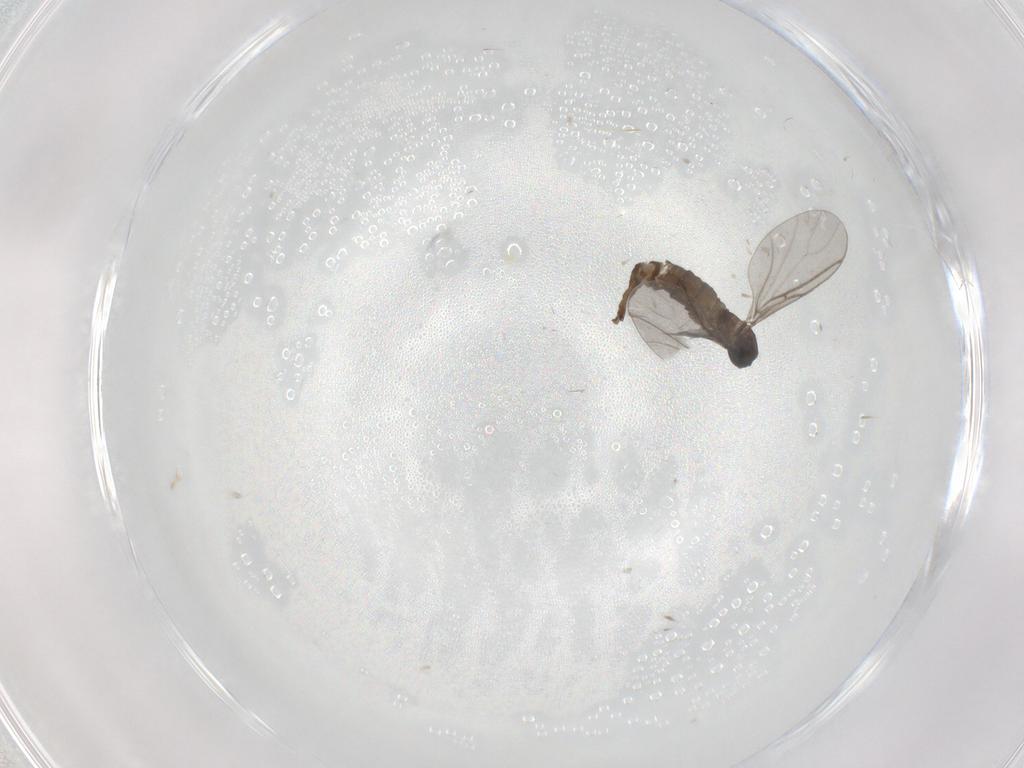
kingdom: Animalia
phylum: Arthropoda
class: Insecta
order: Diptera
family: Sciaridae
